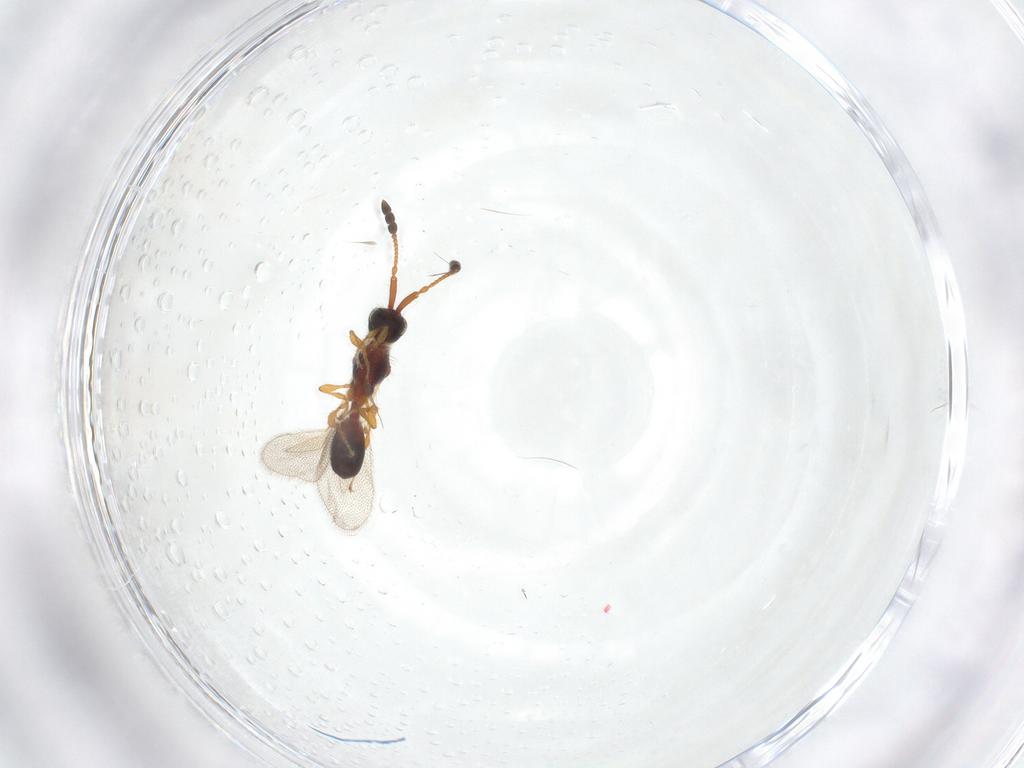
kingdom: Animalia
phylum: Arthropoda
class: Insecta
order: Hymenoptera
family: Diapriidae
